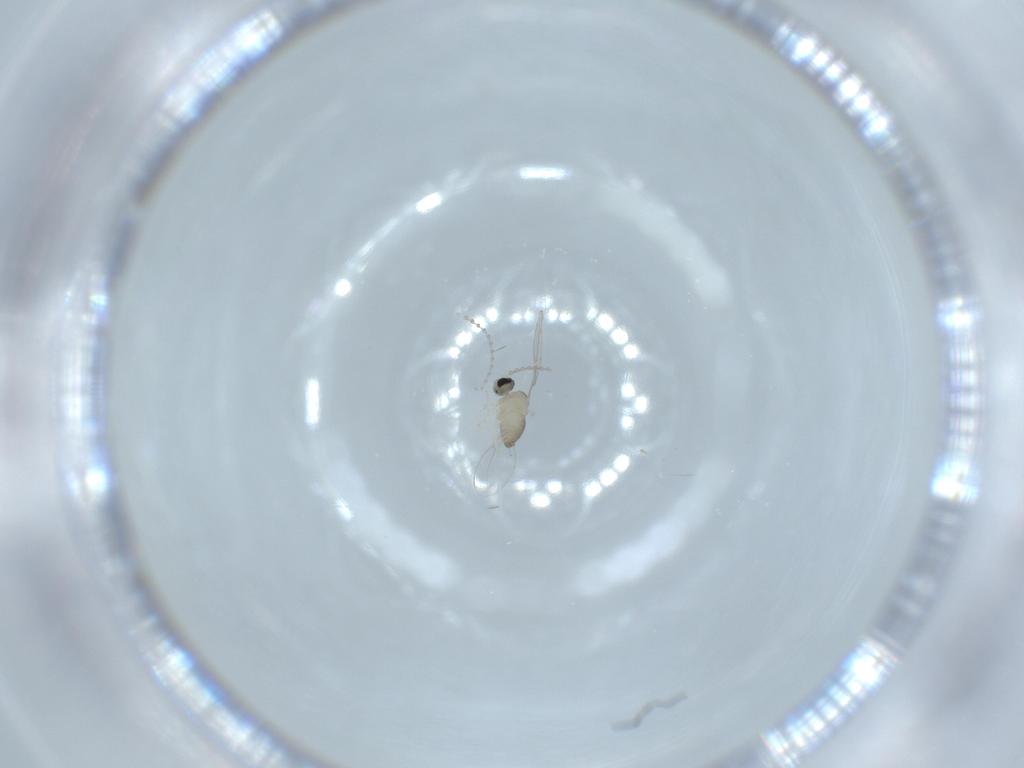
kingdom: Animalia
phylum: Arthropoda
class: Insecta
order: Diptera
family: Cecidomyiidae
